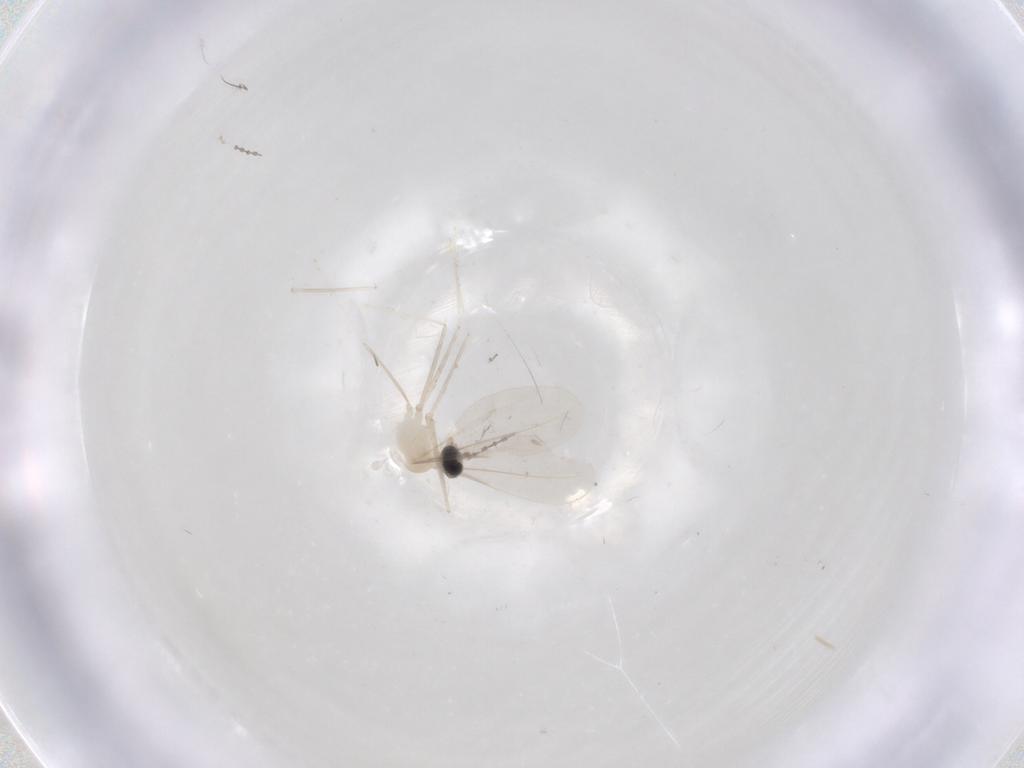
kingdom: Animalia
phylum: Arthropoda
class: Insecta
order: Diptera
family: Cecidomyiidae
